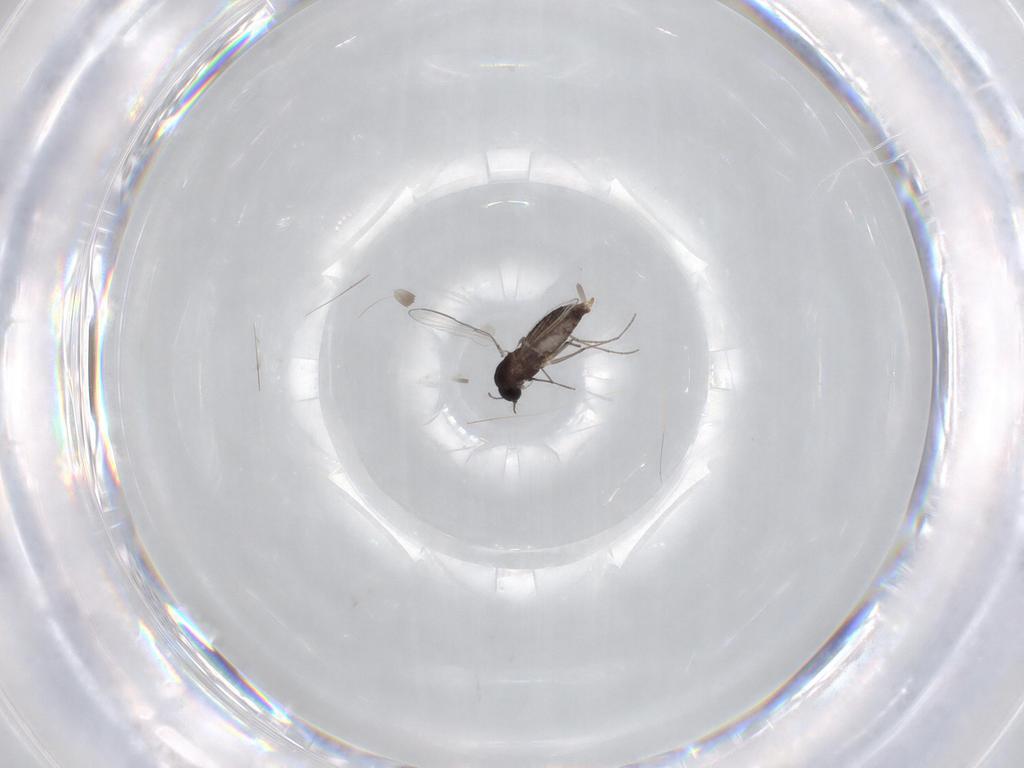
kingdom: Animalia
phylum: Arthropoda
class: Insecta
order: Diptera
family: Chironomidae
